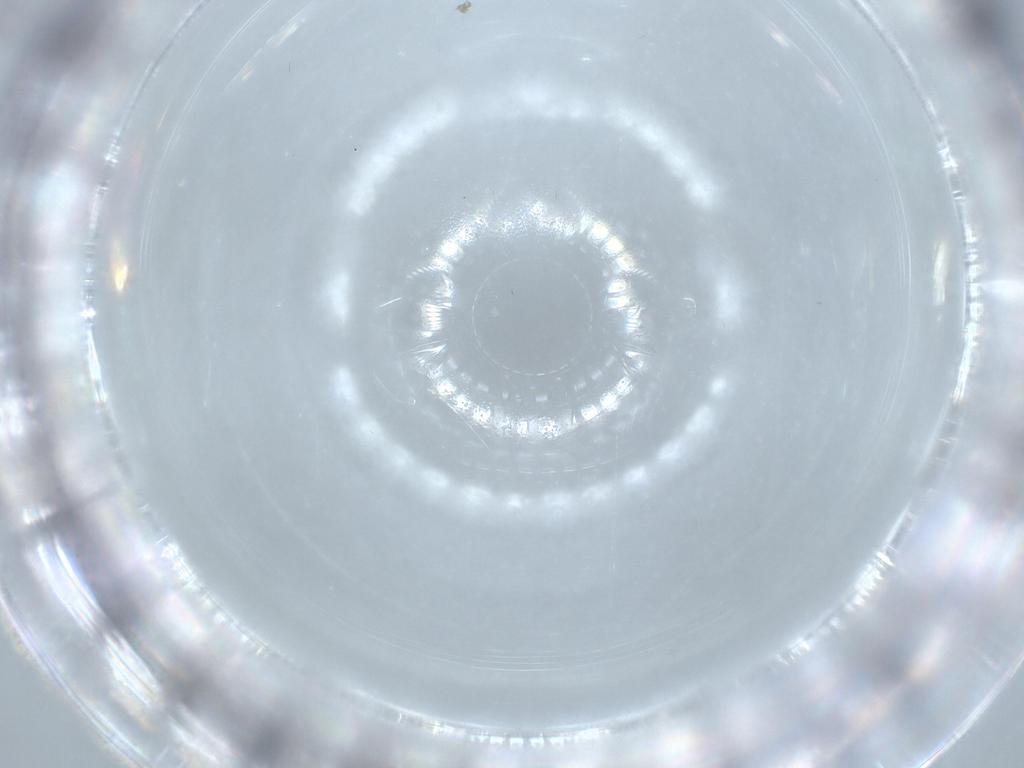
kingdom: Animalia
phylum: Arthropoda
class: Insecta
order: Hymenoptera
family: Mymaridae
